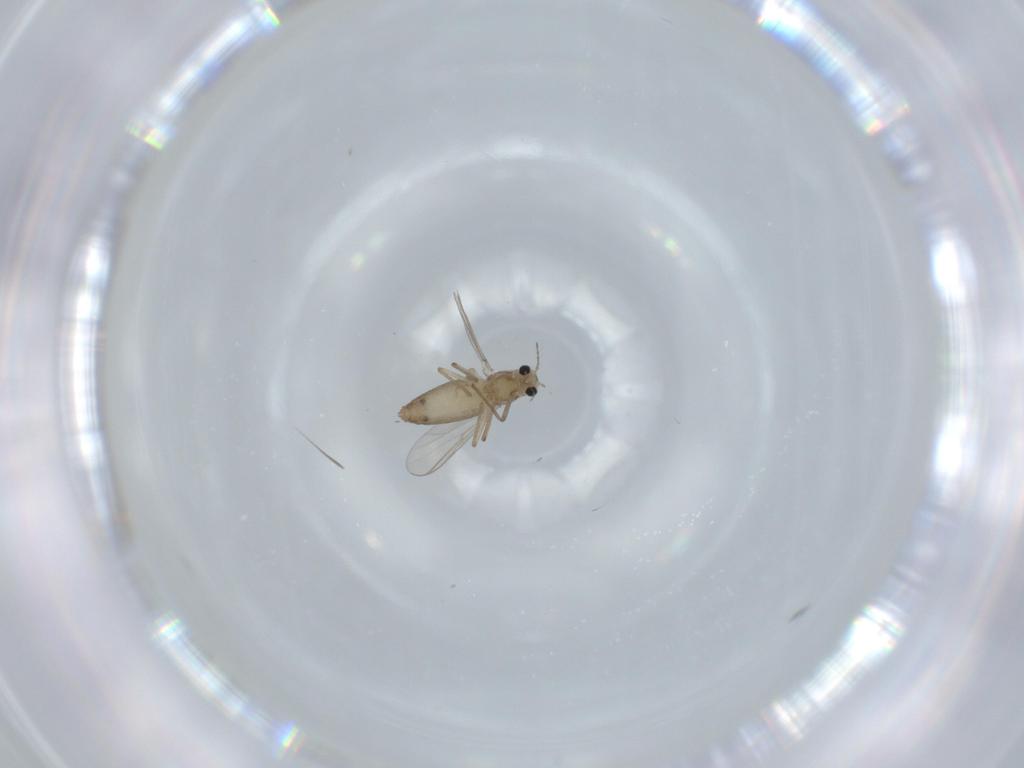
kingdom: Animalia
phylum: Arthropoda
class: Insecta
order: Diptera
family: Chironomidae
